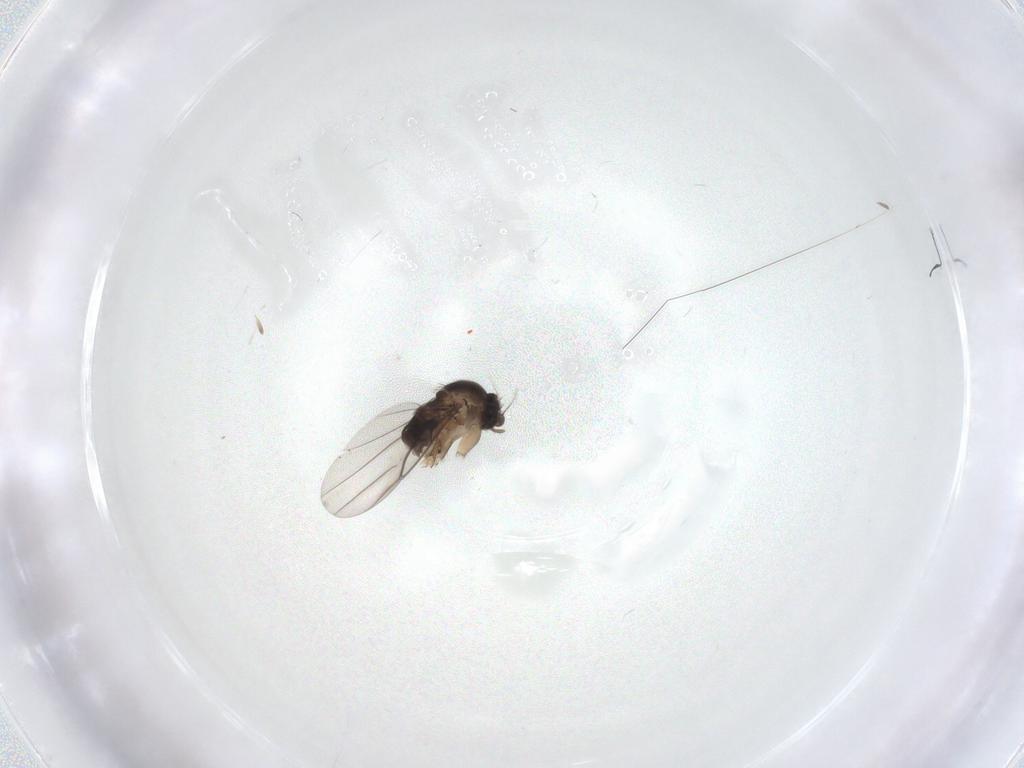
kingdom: Animalia
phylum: Arthropoda
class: Insecta
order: Diptera
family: Phoridae
